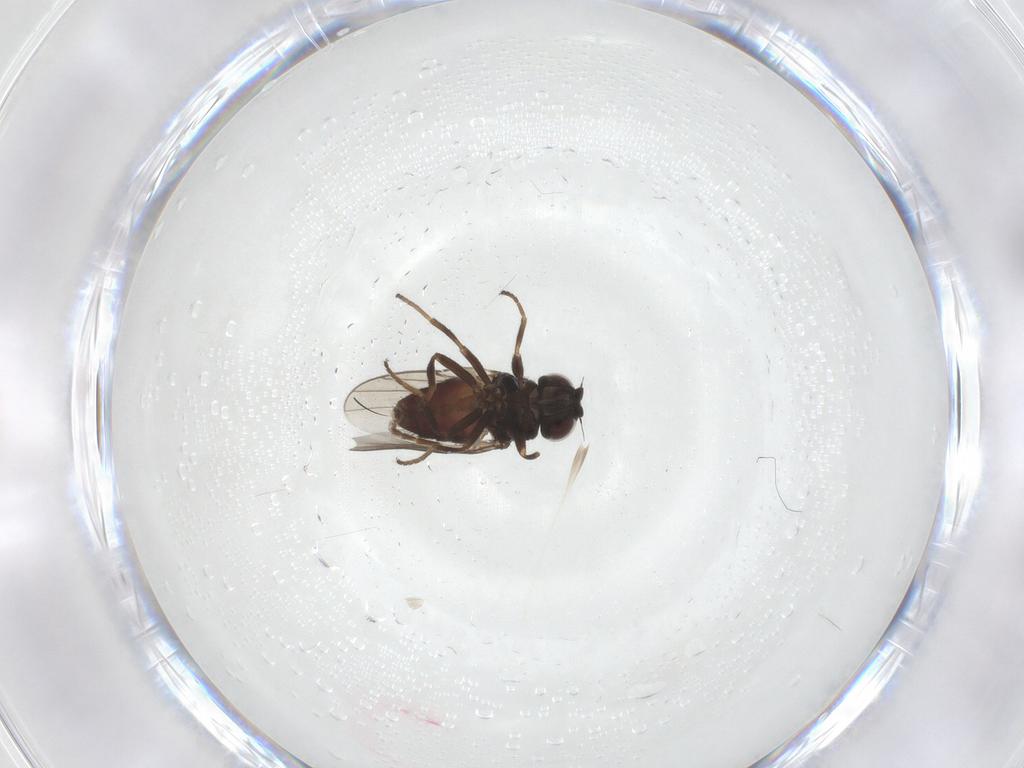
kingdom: Animalia
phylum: Arthropoda
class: Insecta
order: Diptera
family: Chloropidae
